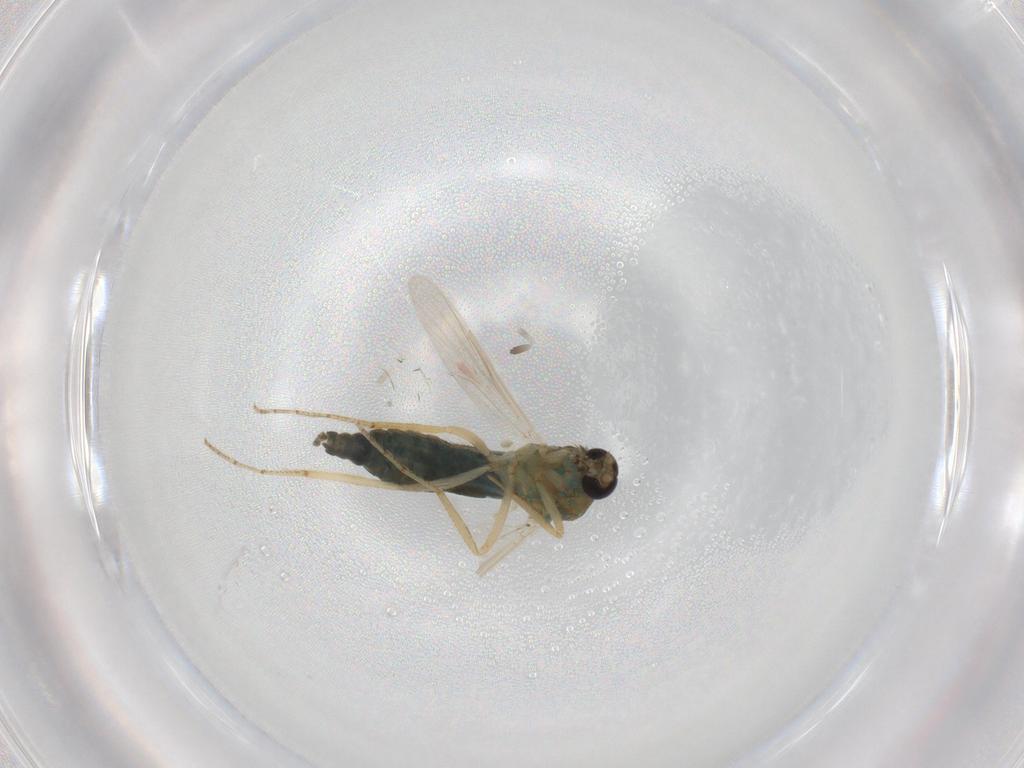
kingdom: Animalia
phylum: Arthropoda
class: Insecta
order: Diptera
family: Ceratopogonidae
